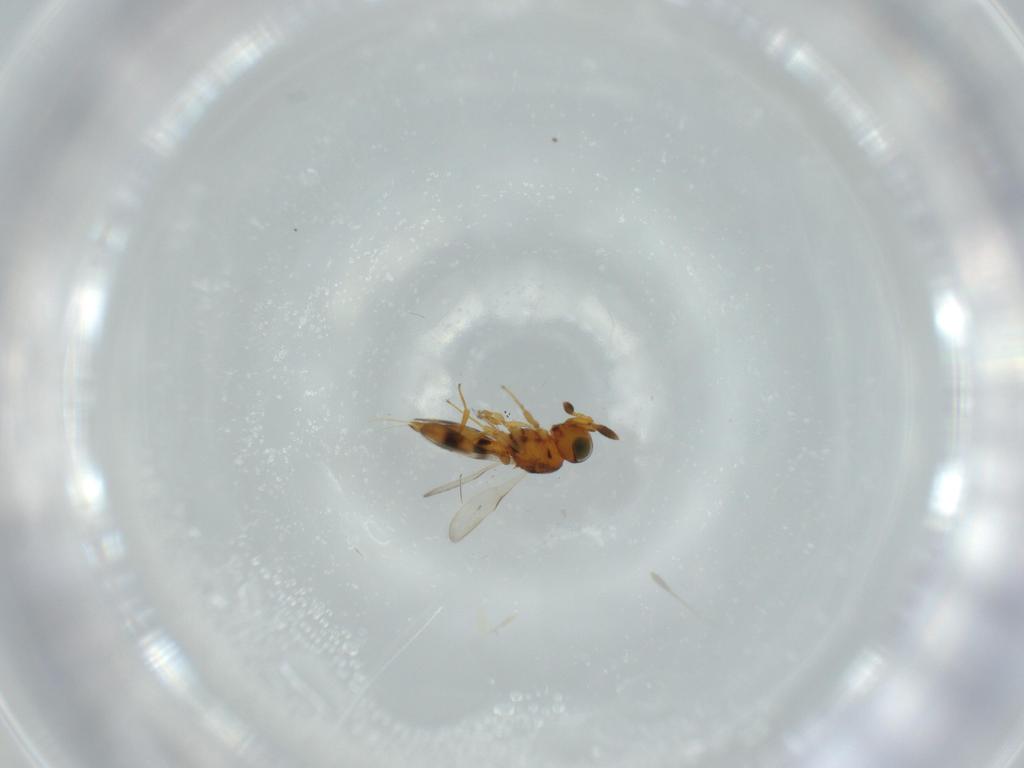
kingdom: Animalia
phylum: Arthropoda
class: Insecta
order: Hymenoptera
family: Scelionidae
